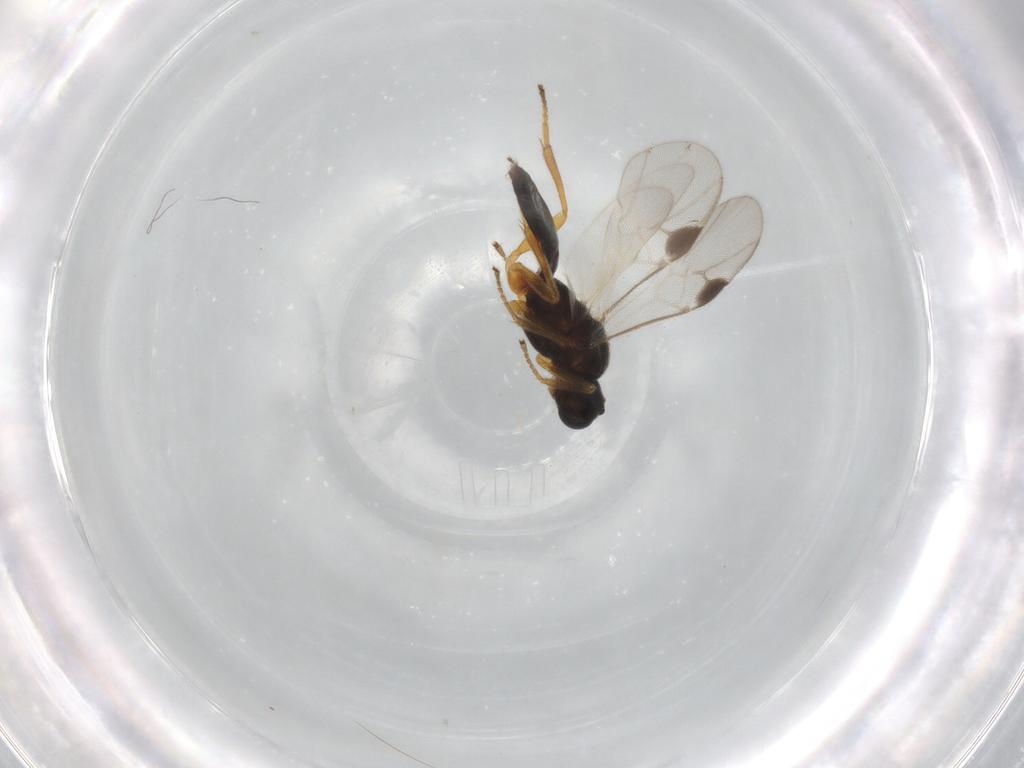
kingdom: Animalia
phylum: Arthropoda
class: Insecta
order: Hymenoptera
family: Braconidae
